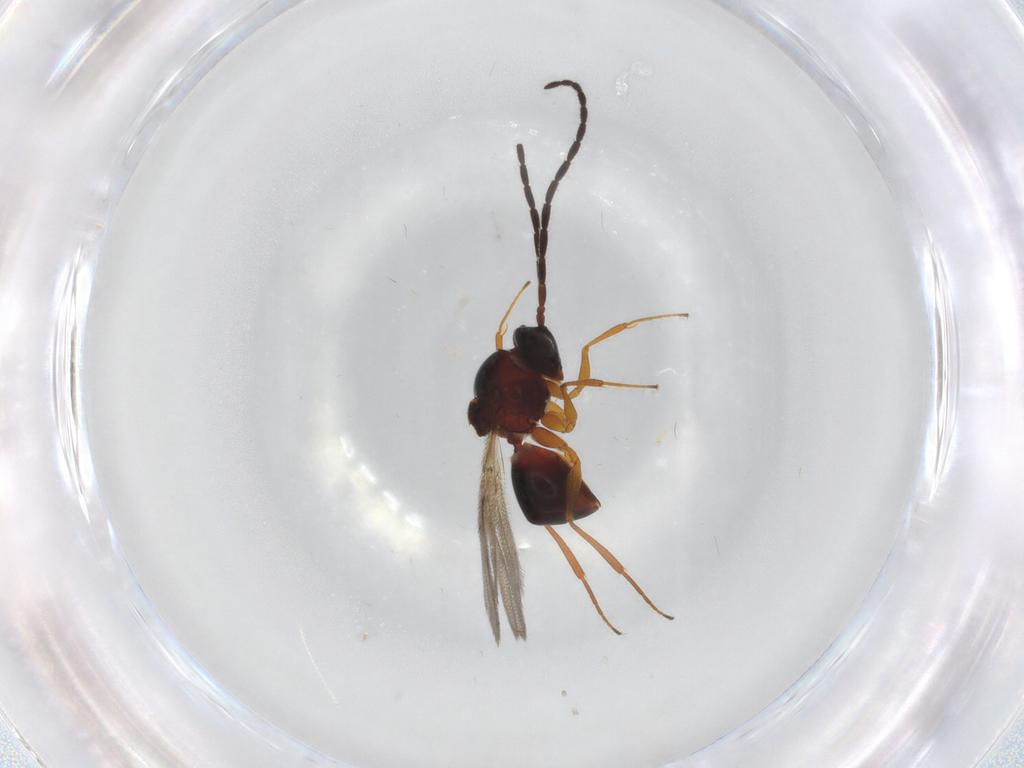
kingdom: Animalia
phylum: Arthropoda
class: Insecta
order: Hymenoptera
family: Figitidae
